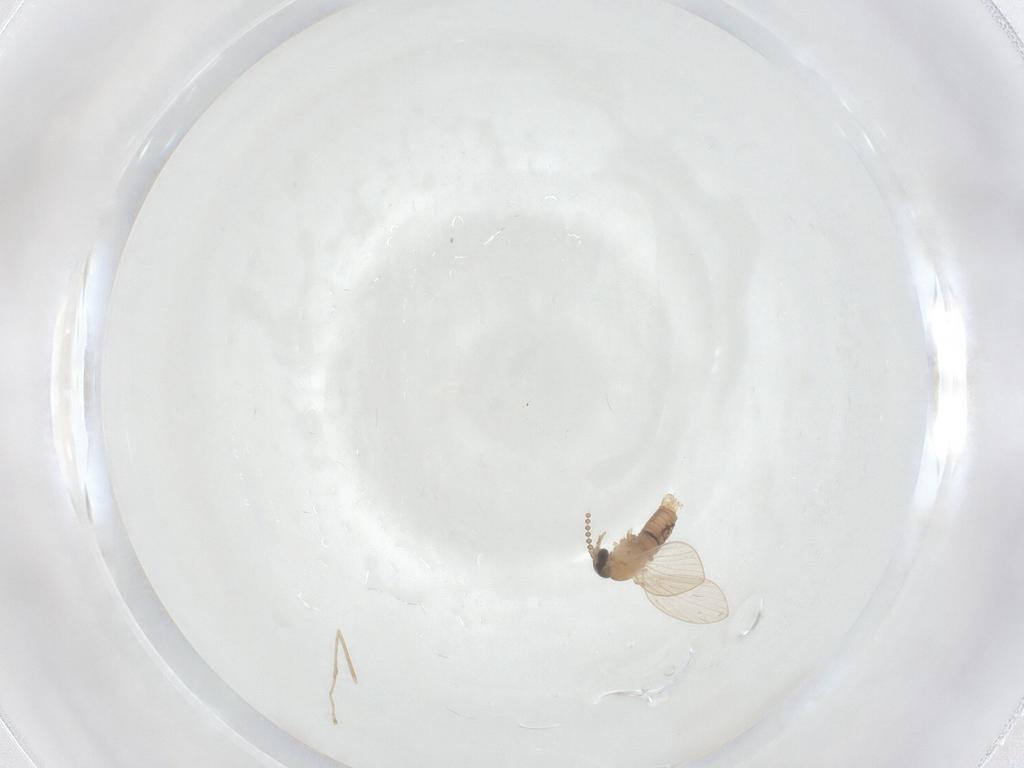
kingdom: Animalia
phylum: Arthropoda
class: Insecta
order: Diptera
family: Psychodidae
